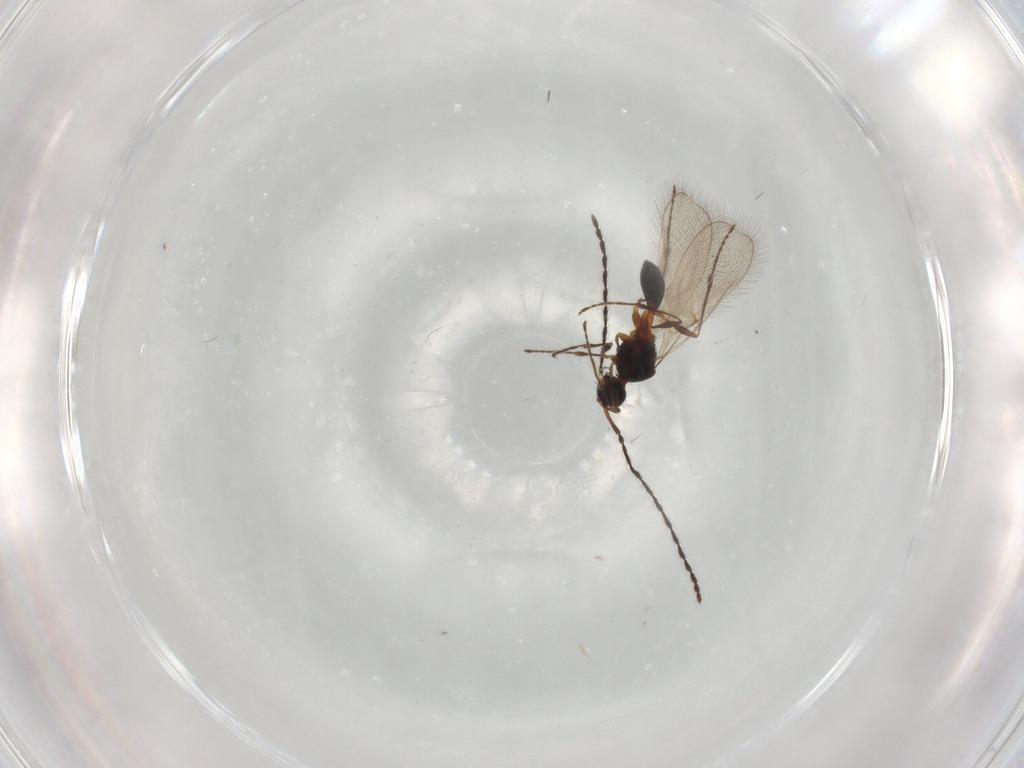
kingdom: Animalia
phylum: Arthropoda
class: Insecta
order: Hymenoptera
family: Diapriidae
